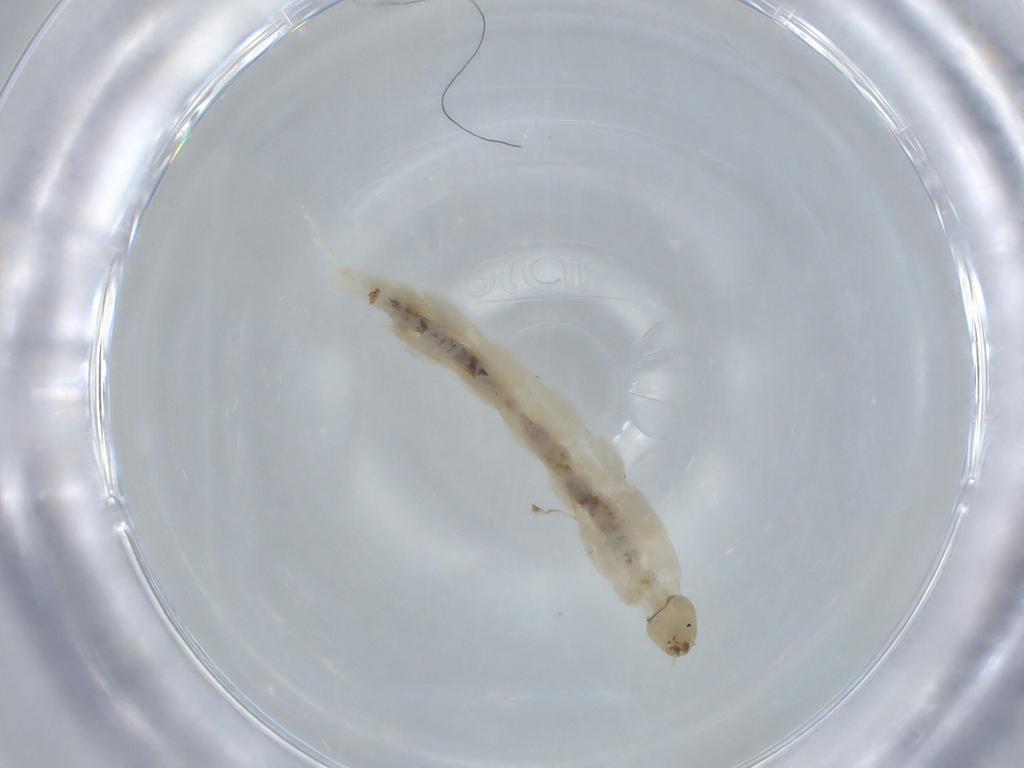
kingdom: Animalia
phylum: Arthropoda
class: Insecta
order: Diptera
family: Chironomidae
